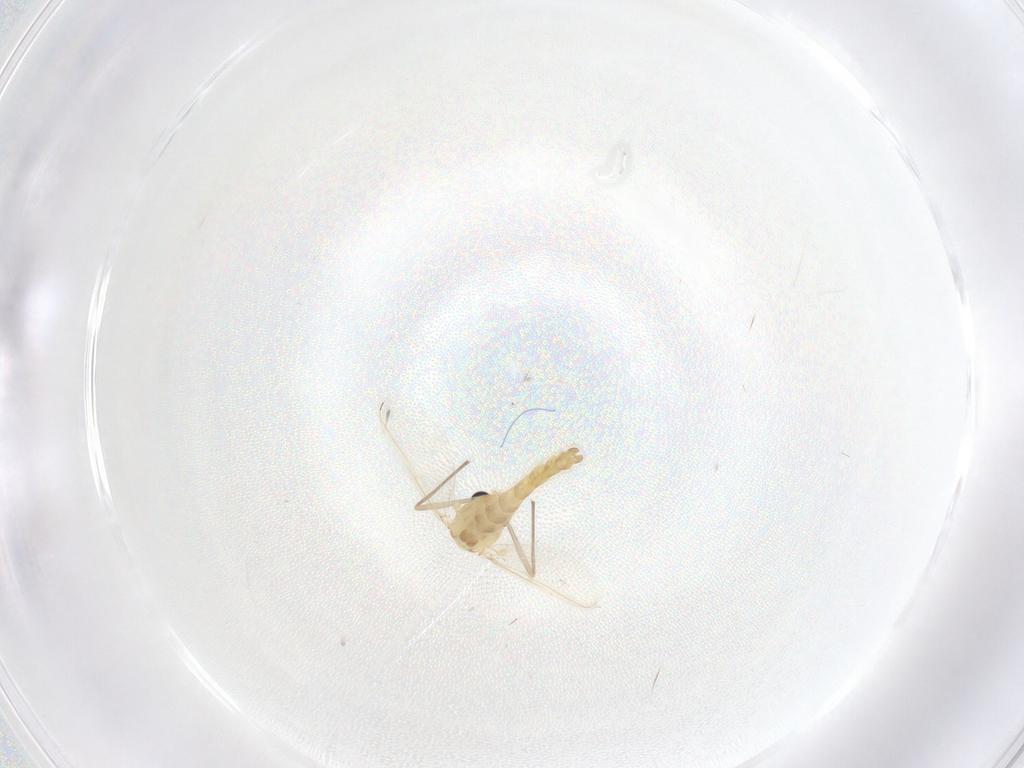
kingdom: Animalia
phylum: Arthropoda
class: Insecta
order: Diptera
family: Chironomidae
